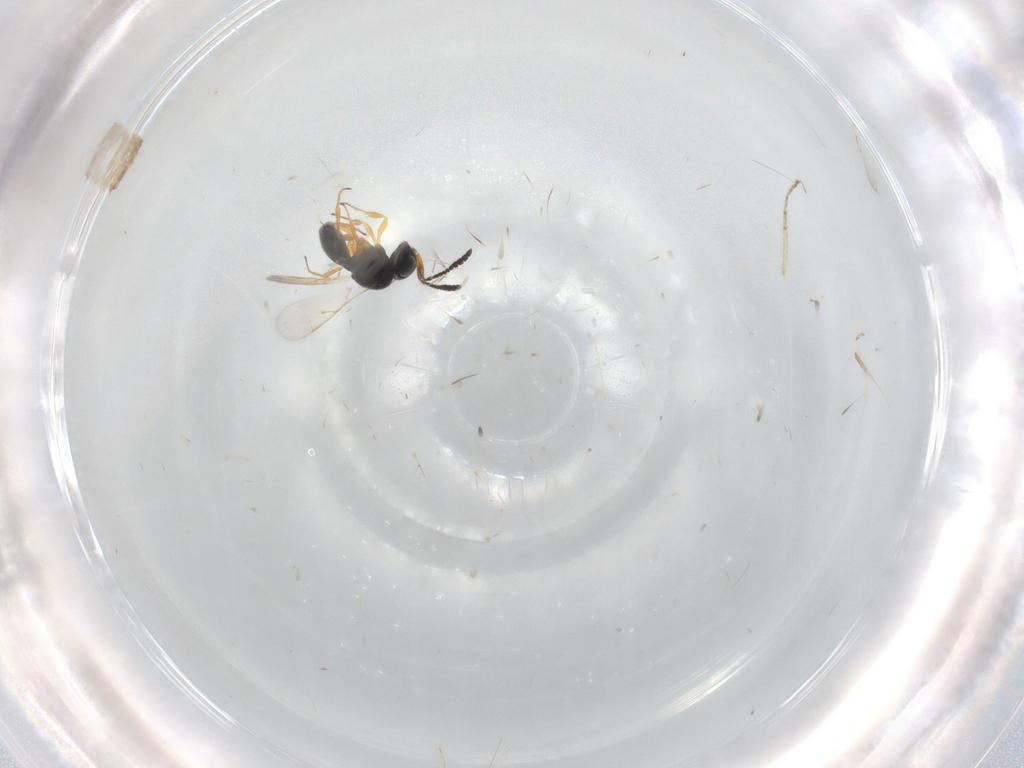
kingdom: Animalia
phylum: Arthropoda
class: Insecta
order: Hymenoptera
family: Scelionidae
